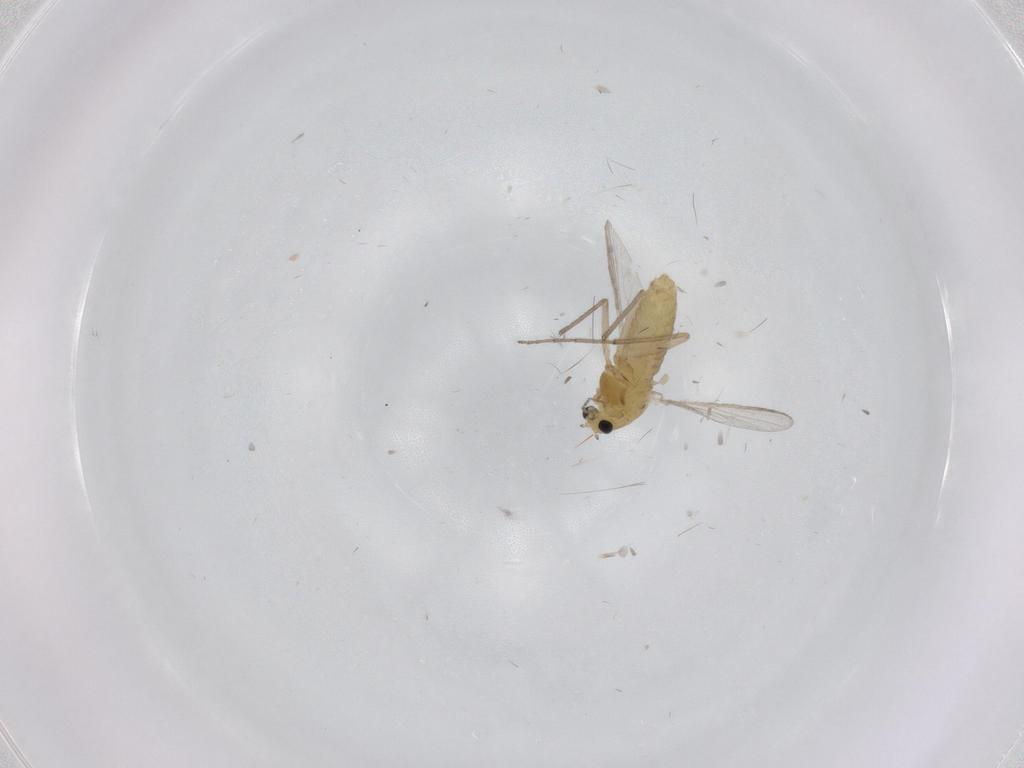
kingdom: Animalia
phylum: Arthropoda
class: Insecta
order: Diptera
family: Chironomidae
